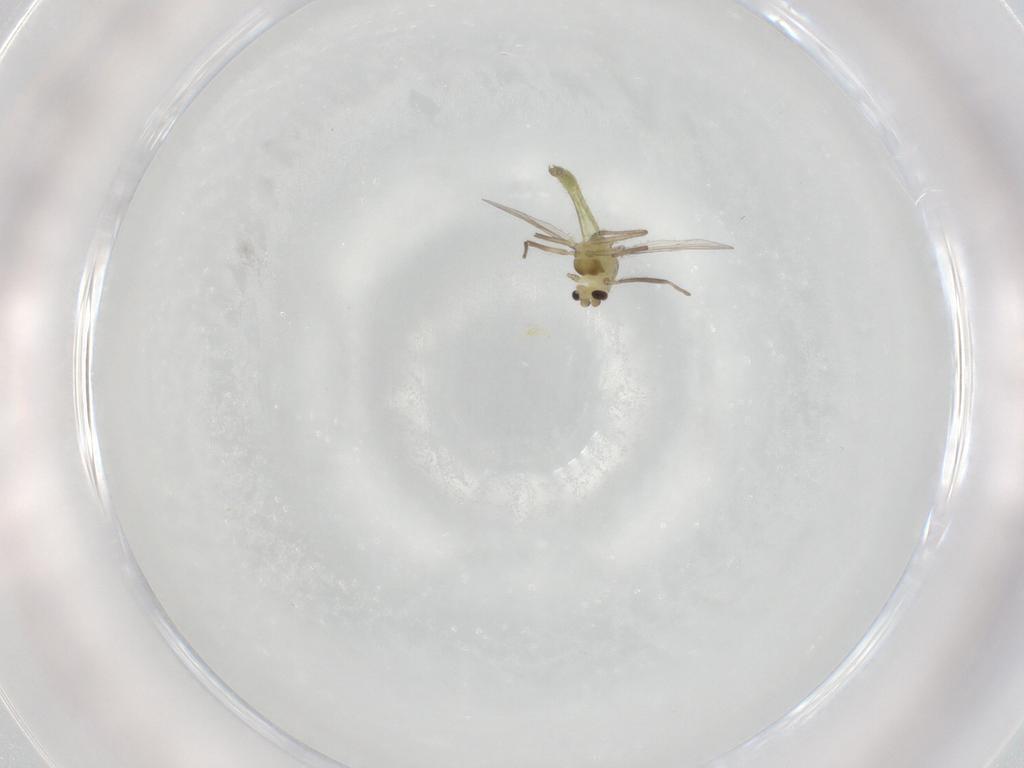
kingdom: Animalia
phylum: Arthropoda
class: Insecta
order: Diptera
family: Chironomidae
